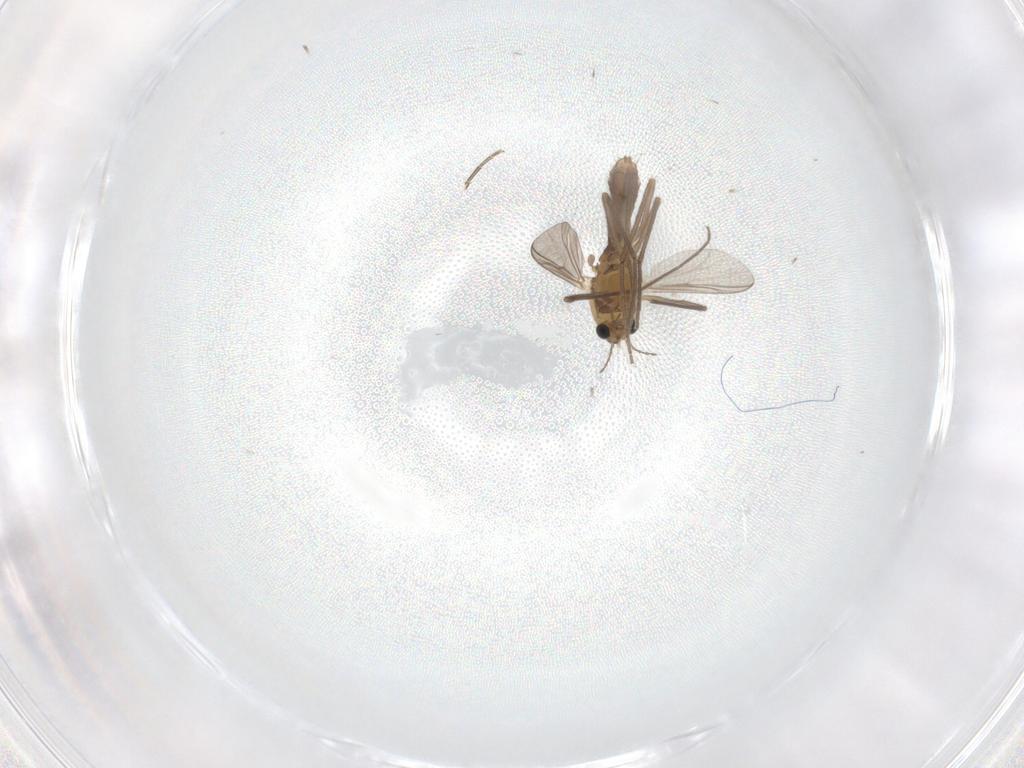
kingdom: Animalia
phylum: Arthropoda
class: Insecta
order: Diptera
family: Chironomidae
